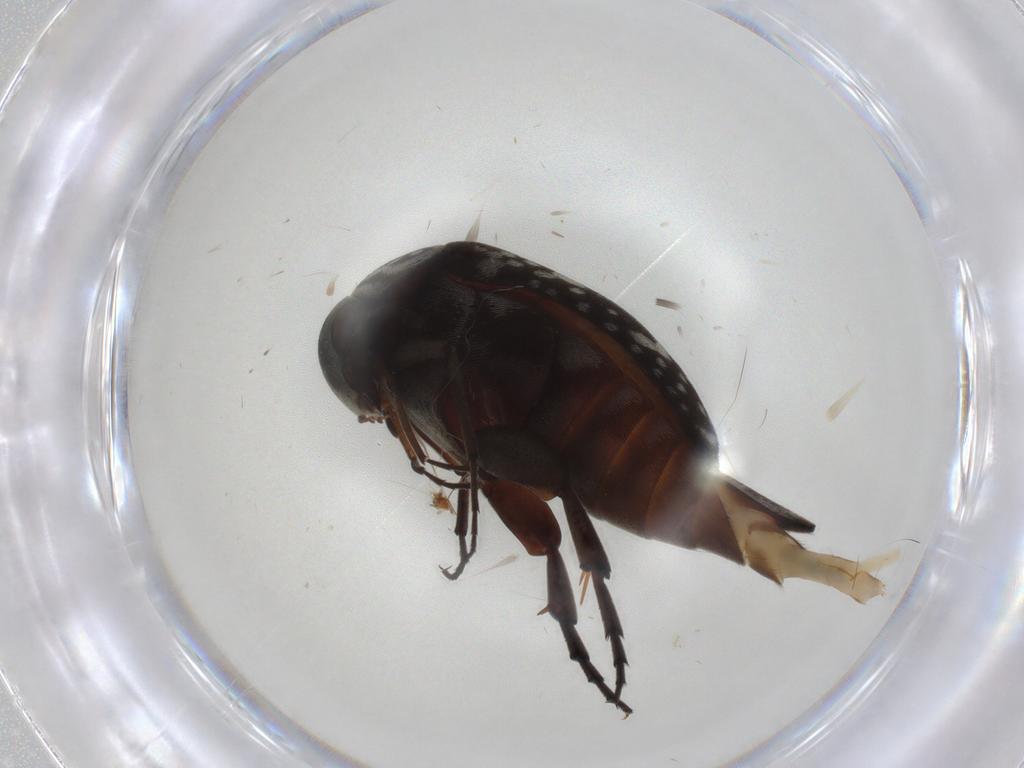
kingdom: Animalia
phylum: Arthropoda
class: Insecta
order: Coleoptera
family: Mordellidae
